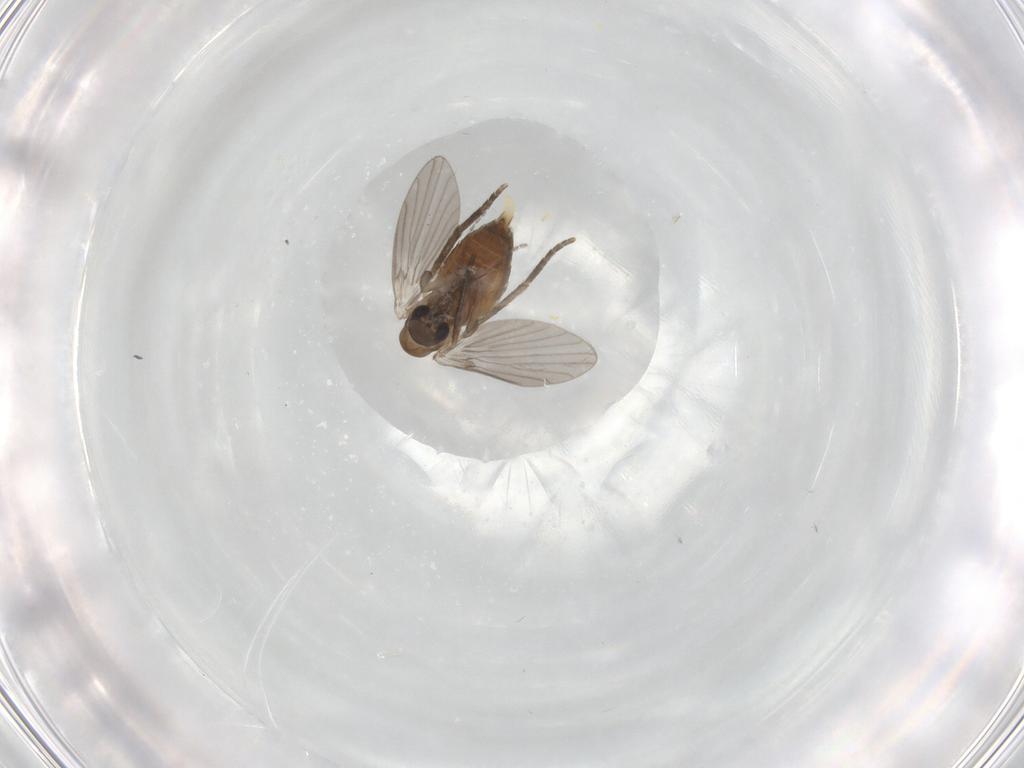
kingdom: Animalia
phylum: Arthropoda
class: Insecta
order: Diptera
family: Sciaridae
